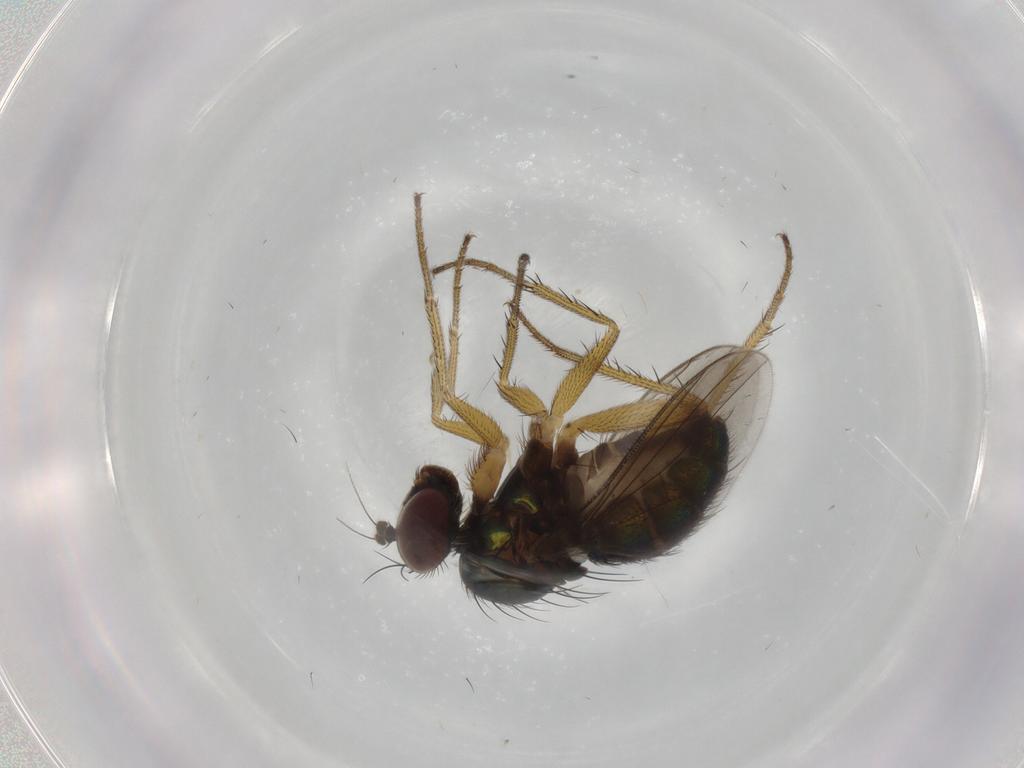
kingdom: Animalia
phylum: Arthropoda
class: Insecta
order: Diptera
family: Dolichopodidae
